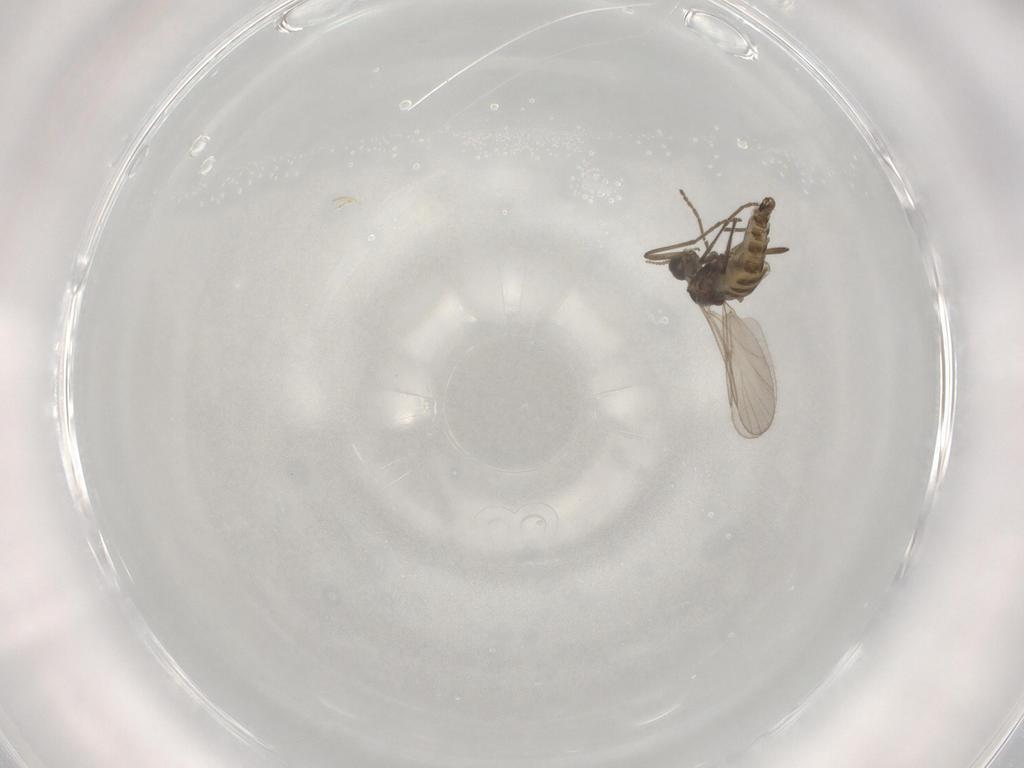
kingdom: Animalia
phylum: Arthropoda
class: Insecta
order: Diptera
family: Cecidomyiidae
